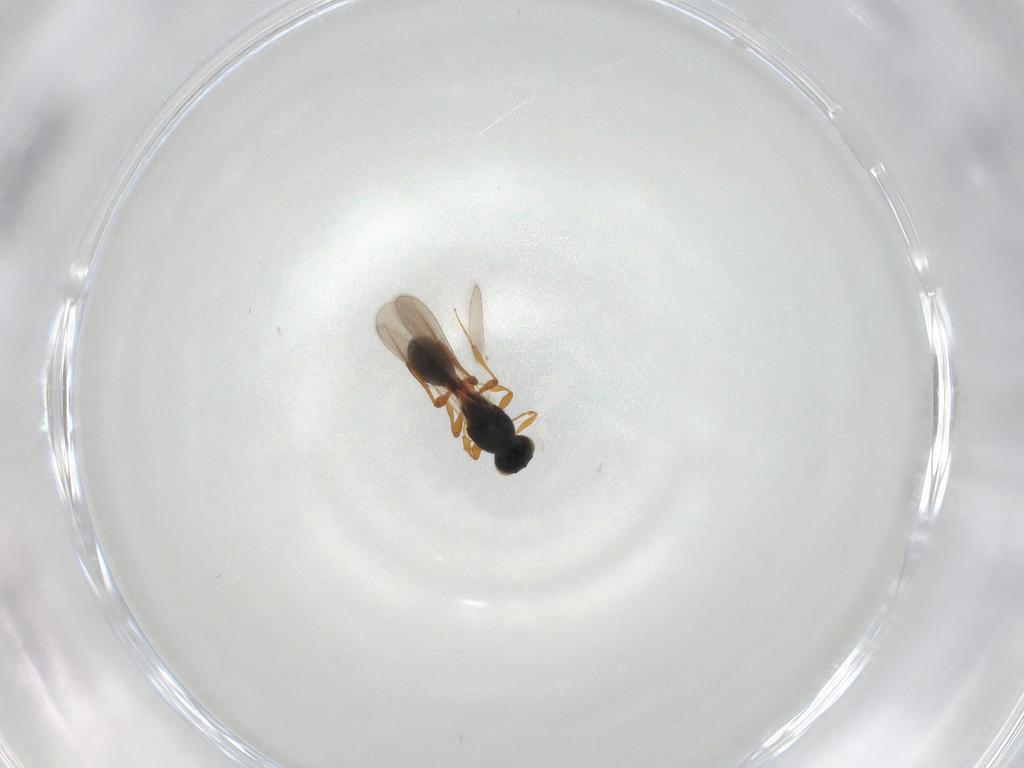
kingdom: Animalia
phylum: Arthropoda
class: Insecta
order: Hymenoptera
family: Platygastridae
